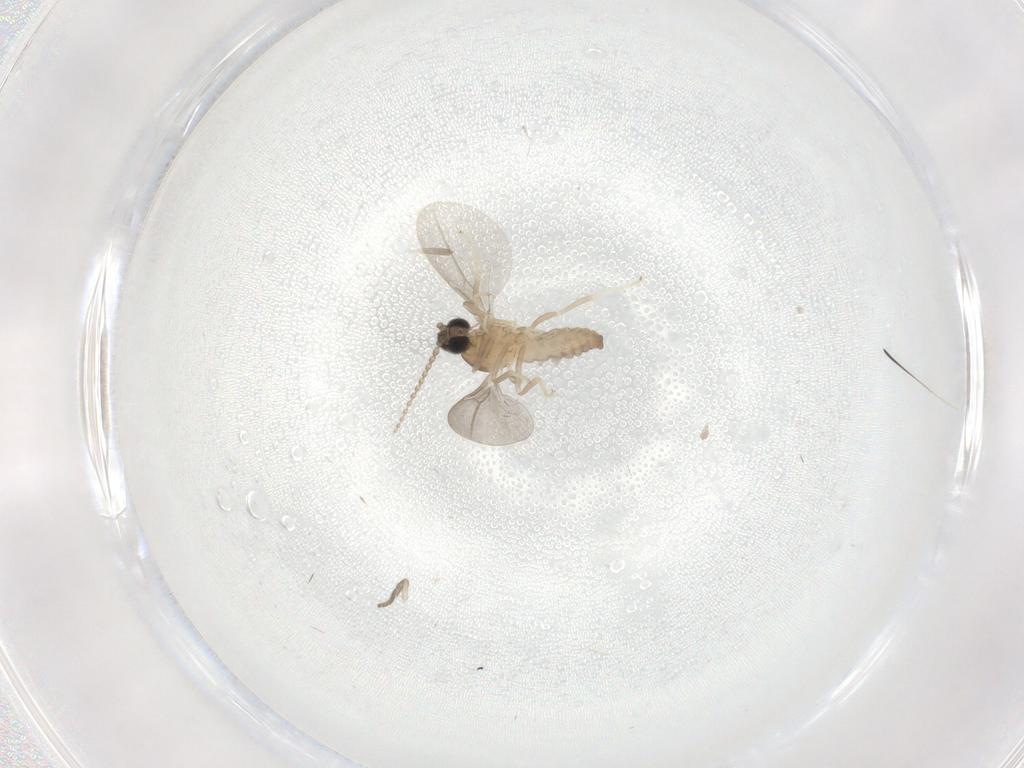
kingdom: Animalia
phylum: Arthropoda
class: Insecta
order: Diptera
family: Cecidomyiidae
